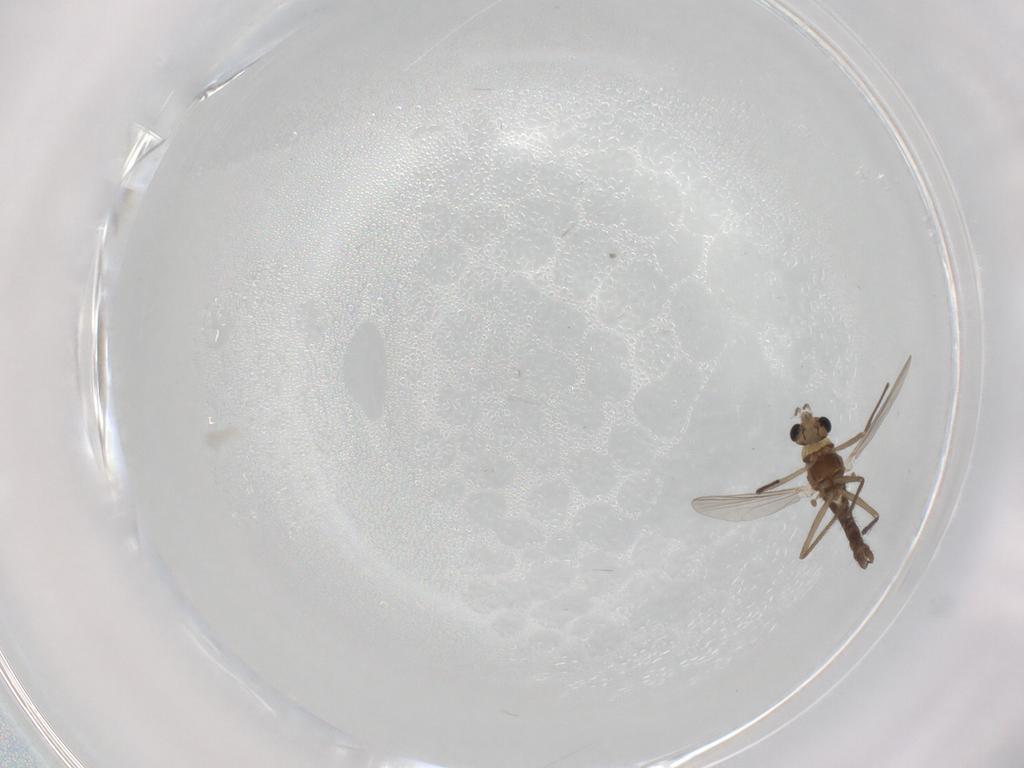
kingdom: Animalia
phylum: Arthropoda
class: Insecta
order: Diptera
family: Chironomidae
